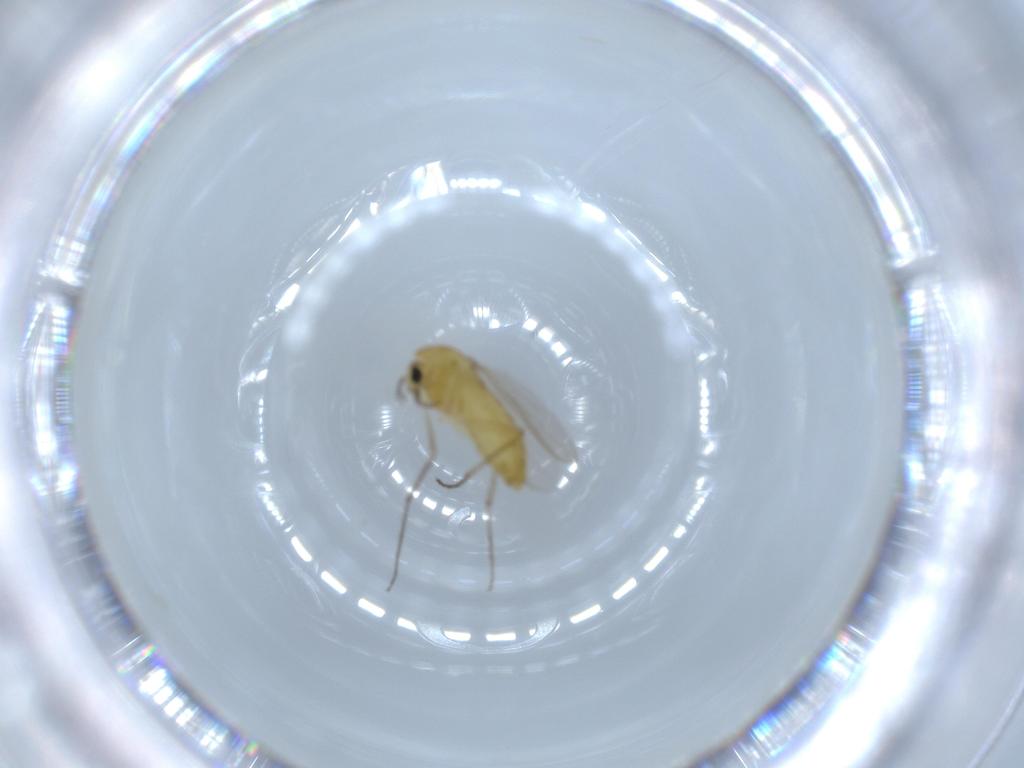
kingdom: Animalia
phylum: Arthropoda
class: Insecta
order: Diptera
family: Chironomidae
